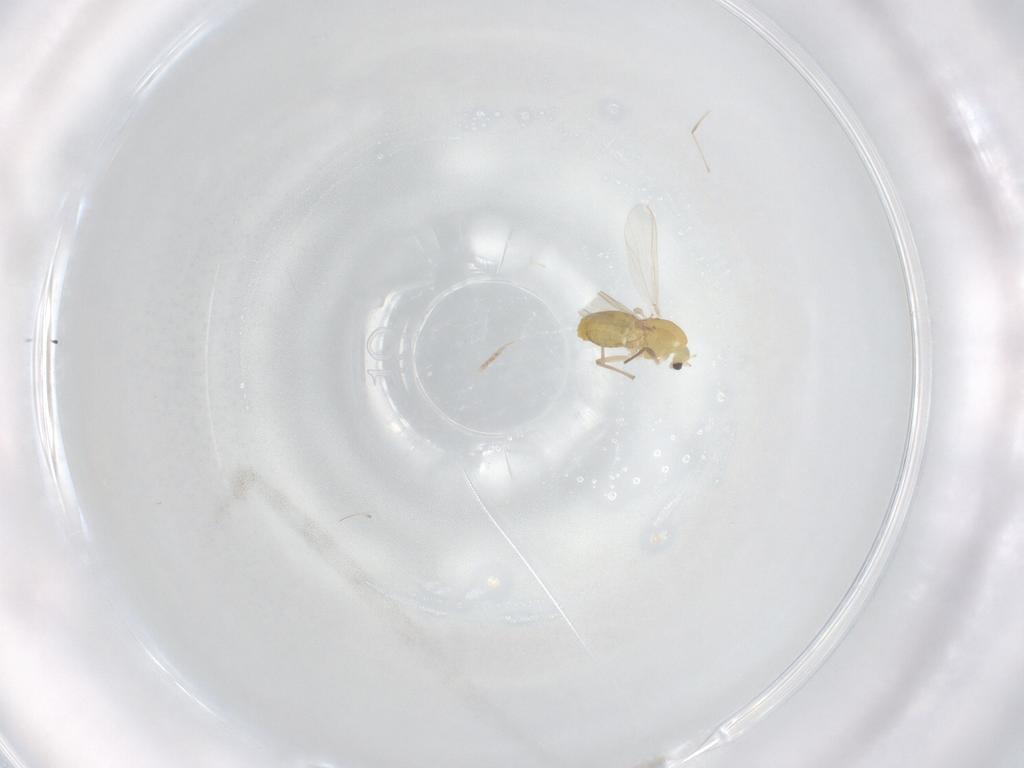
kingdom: Animalia
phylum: Arthropoda
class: Insecta
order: Diptera
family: Chironomidae
